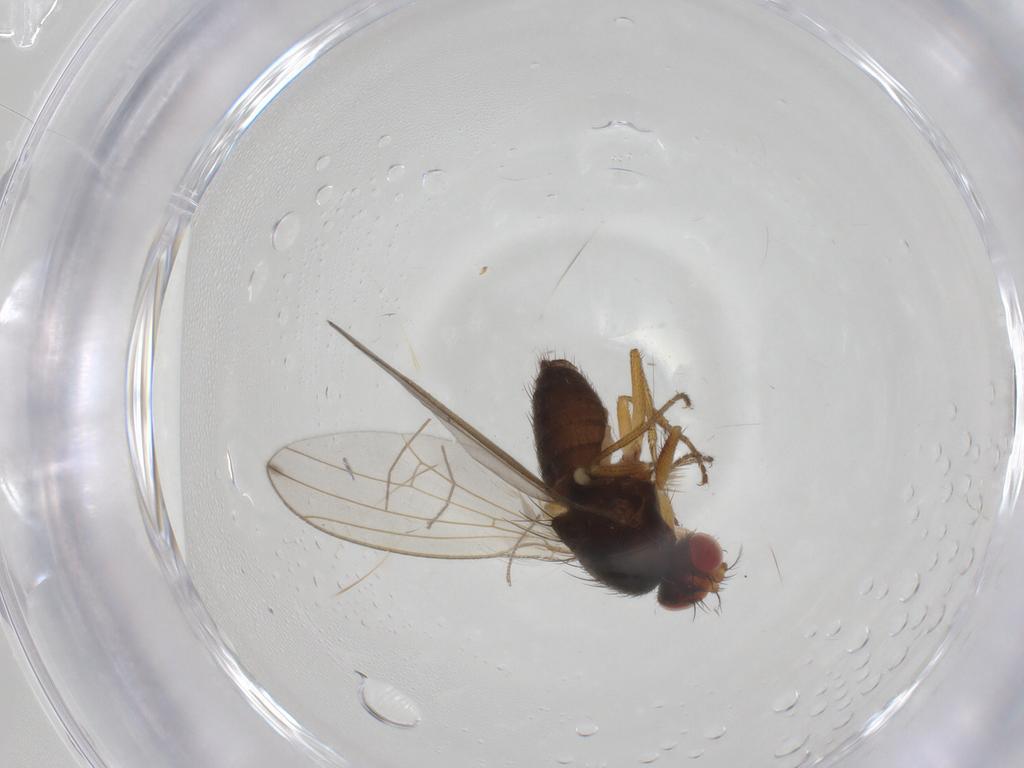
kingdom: Animalia
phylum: Arthropoda
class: Insecta
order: Diptera
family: Drosophilidae
